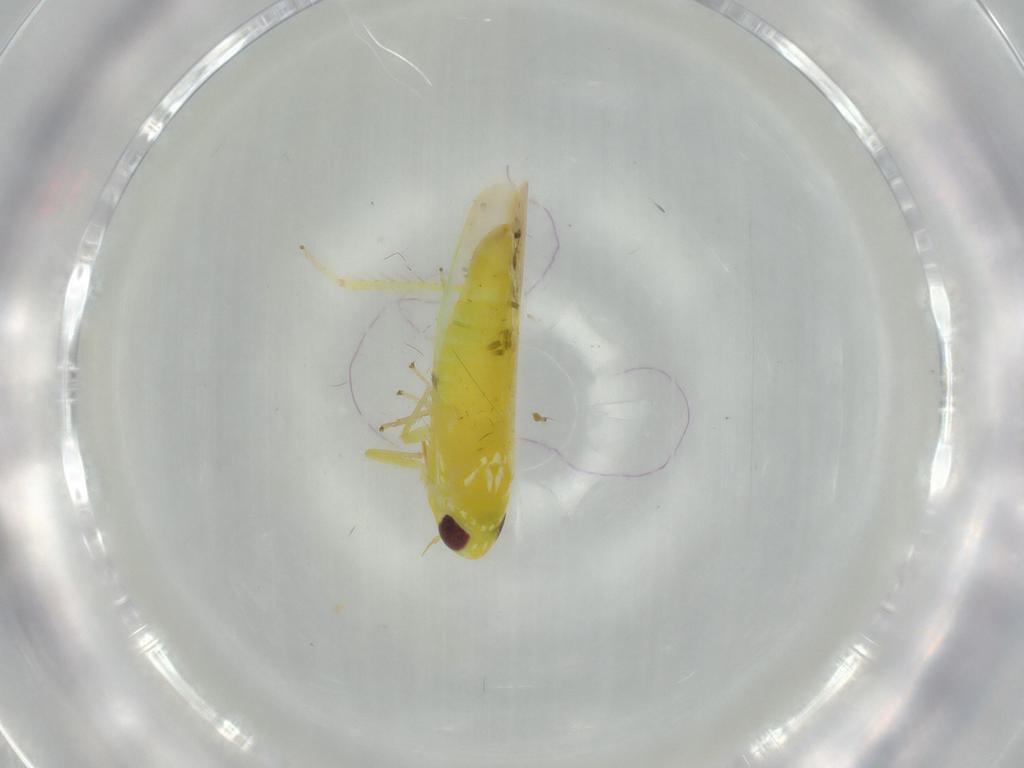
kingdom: Animalia
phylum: Arthropoda
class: Insecta
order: Hemiptera
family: Cicadellidae
